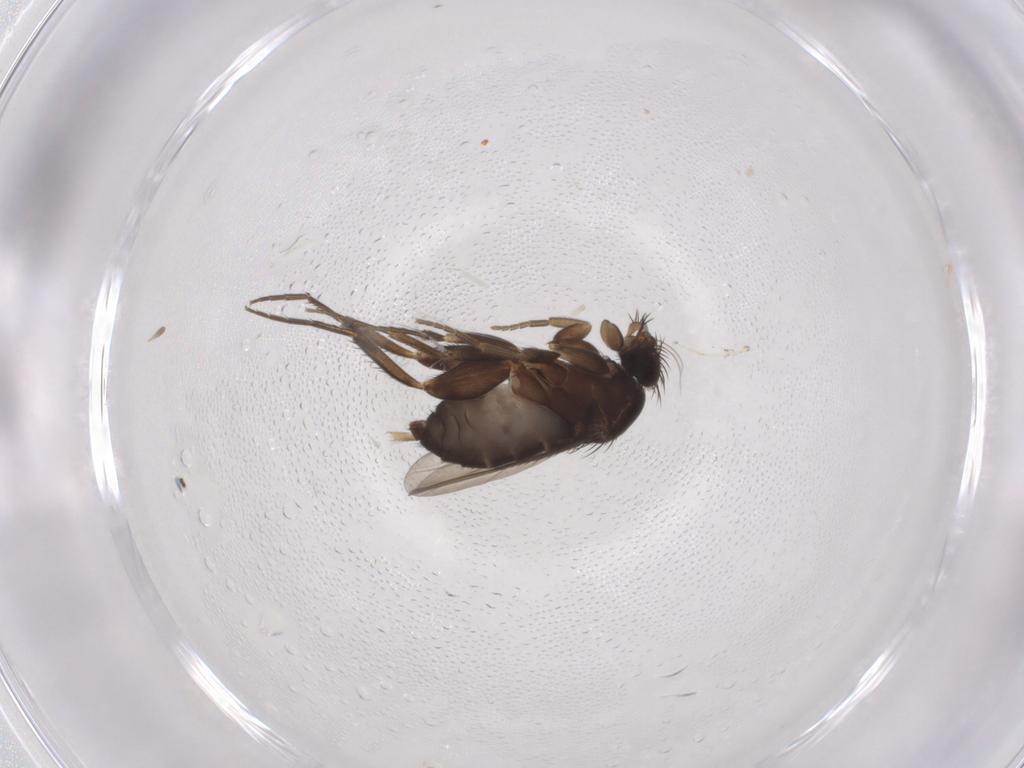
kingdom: Animalia
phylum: Arthropoda
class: Insecta
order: Diptera
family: Phoridae
